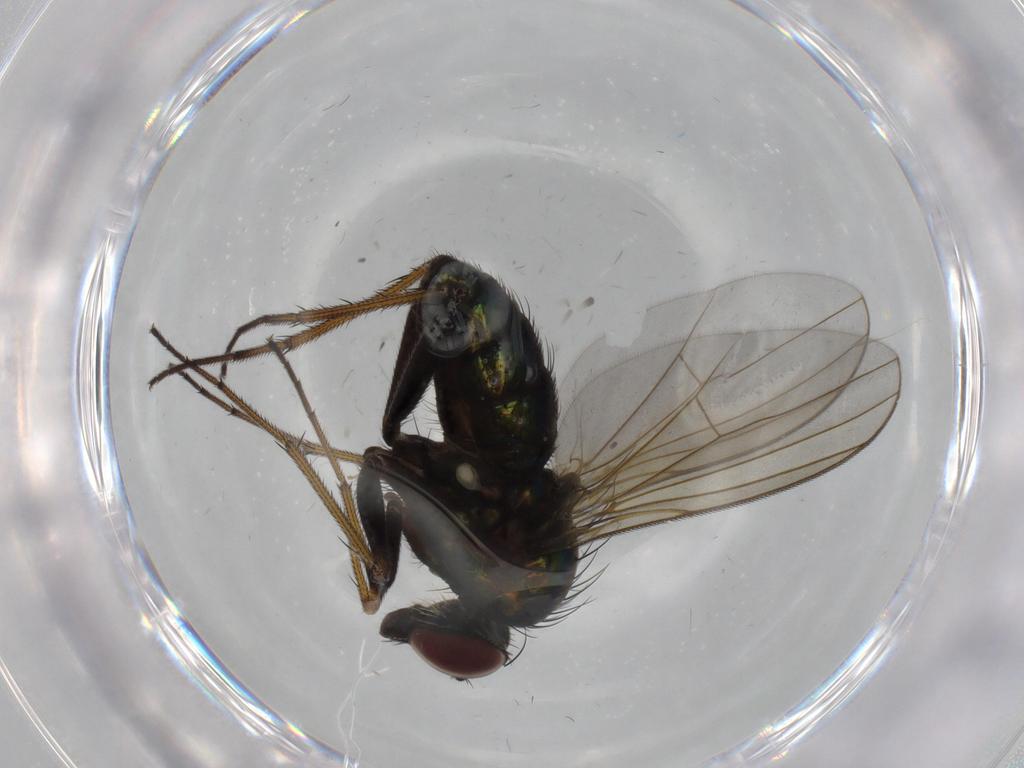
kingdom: Animalia
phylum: Arthropoda
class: Insecta
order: Diptera
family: Dolichopodidae
